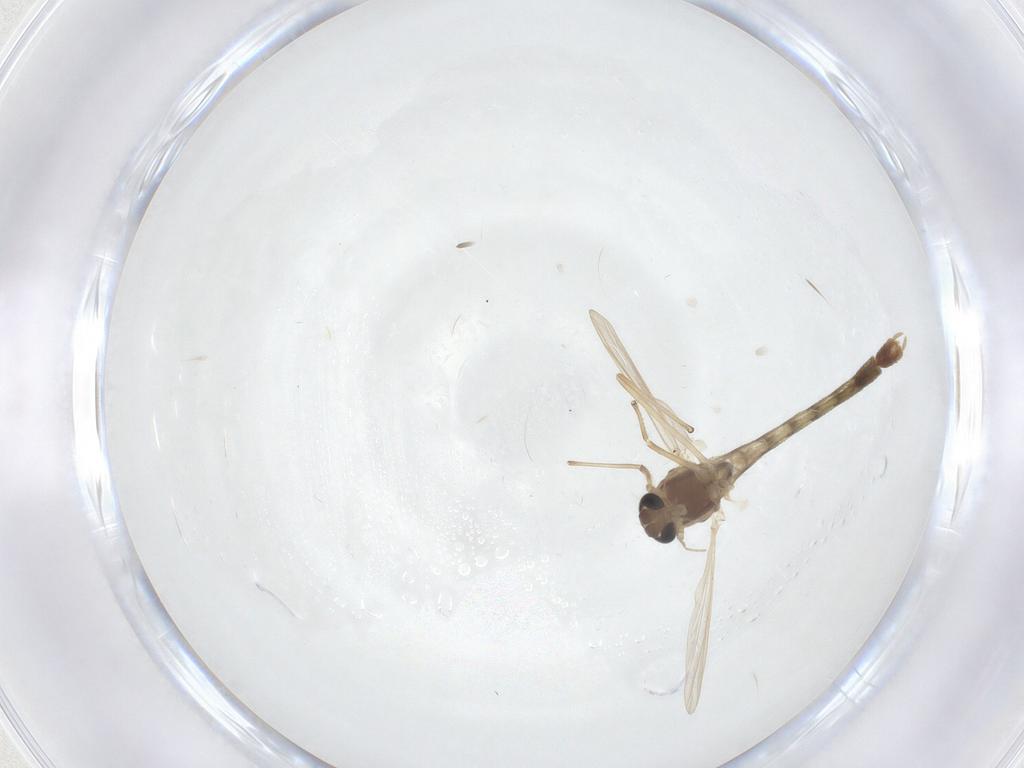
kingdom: Animalia
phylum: Arthropoda
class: Insecta
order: Diptera
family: Chironomidae
